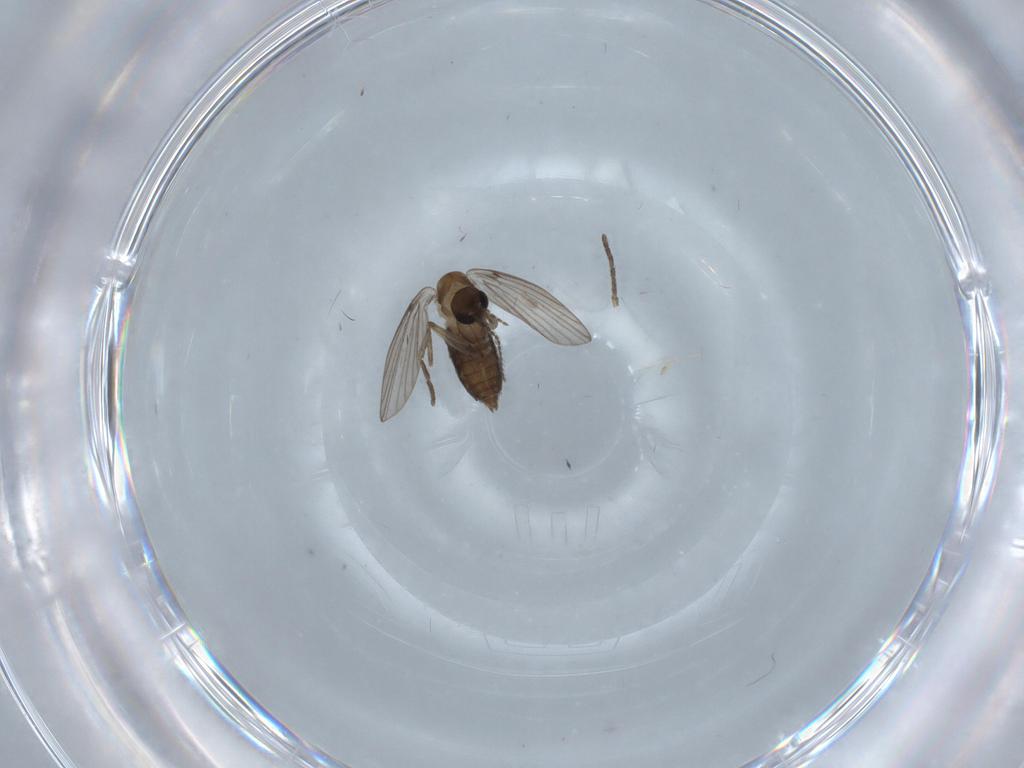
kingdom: Animalia
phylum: Arthropoda
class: Insecta
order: Diptera
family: Psychodidae
